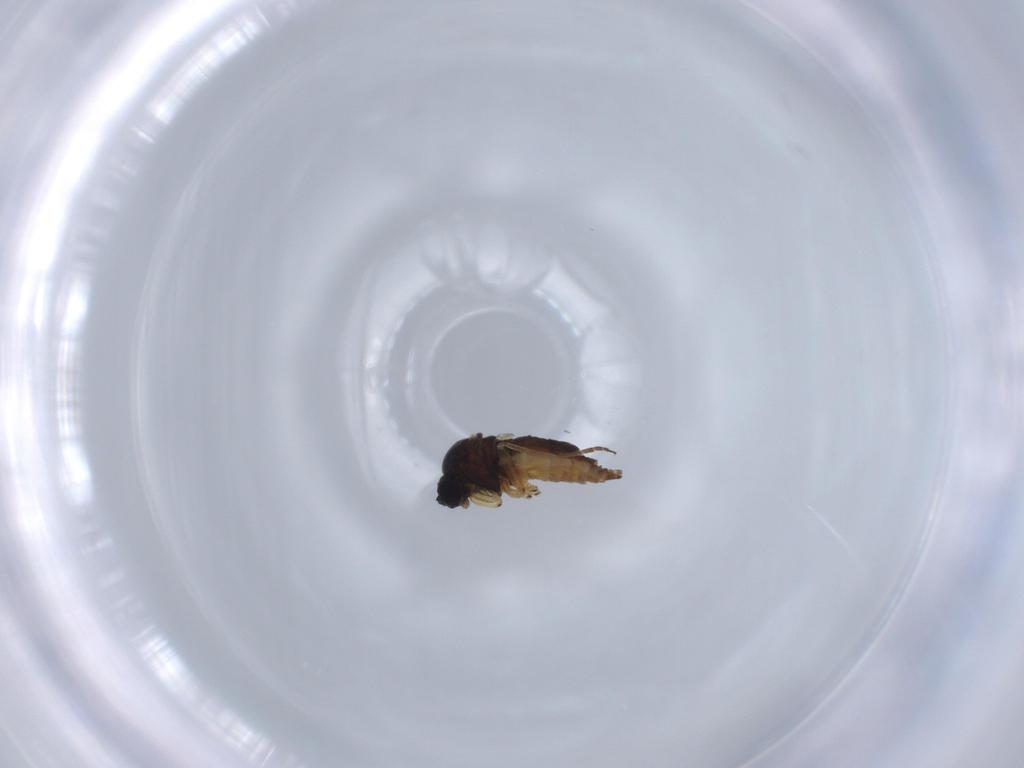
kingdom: Animalia
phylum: Arthropoda
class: Insecta
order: Diptera
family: Sciaridae
